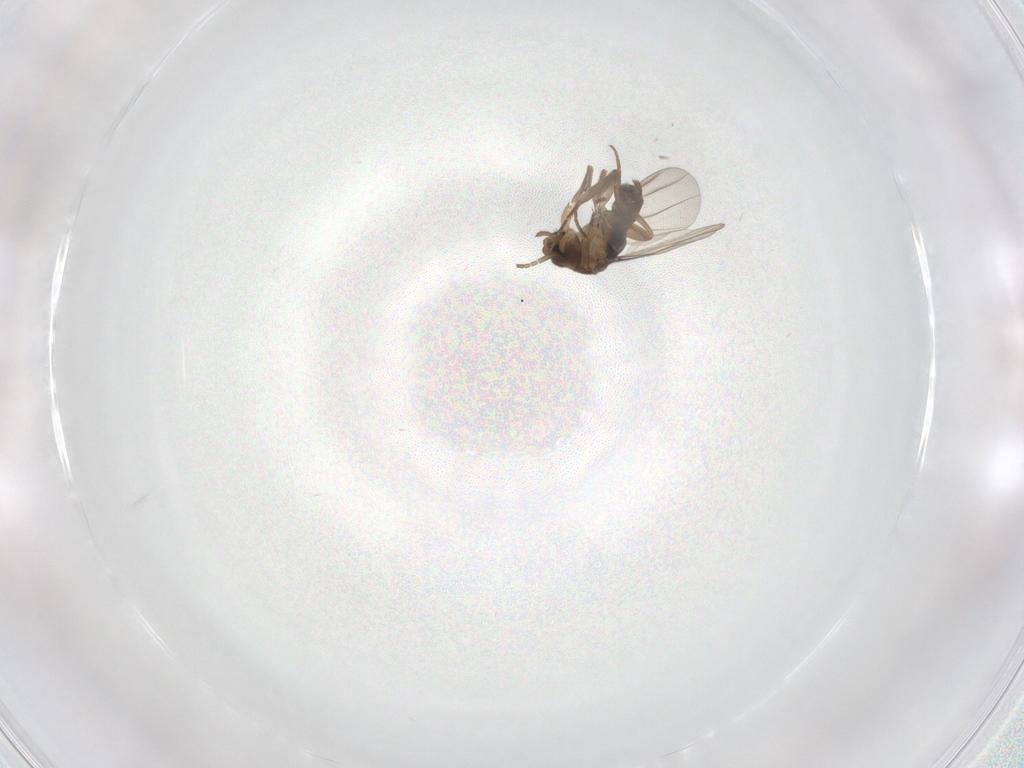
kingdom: Animalia
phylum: Arthropoda
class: Insecta
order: Diptera
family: Phoridae
